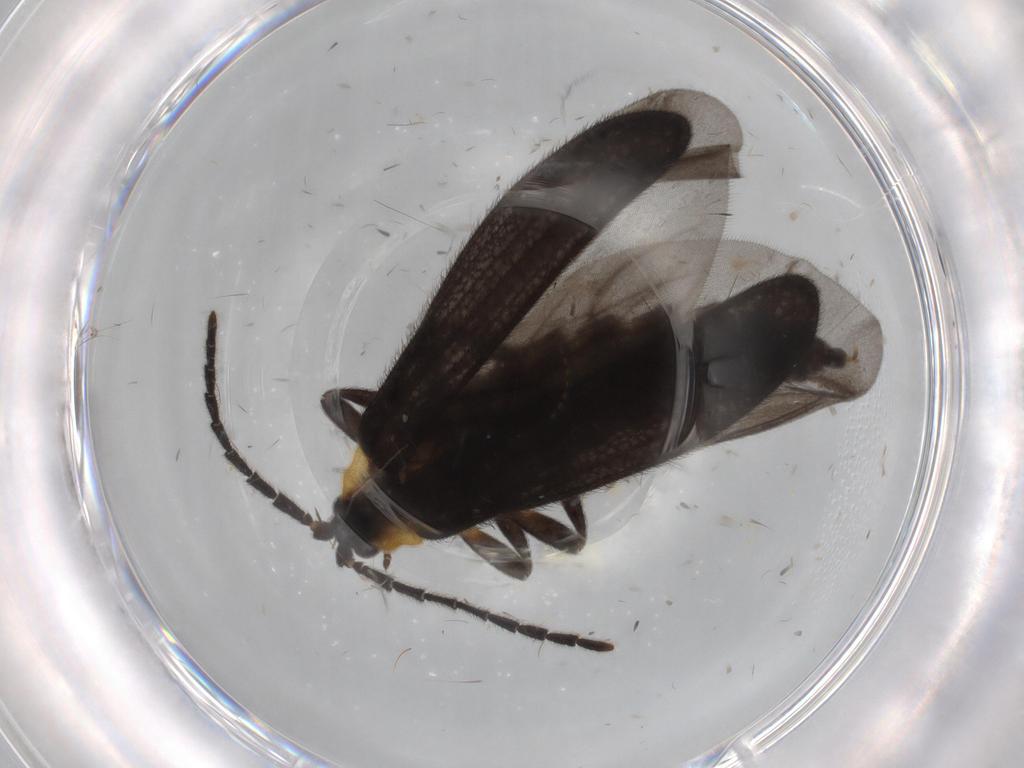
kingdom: Animalia
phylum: Arthropoda
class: Insecta
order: Coleoptera
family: Lycidae
